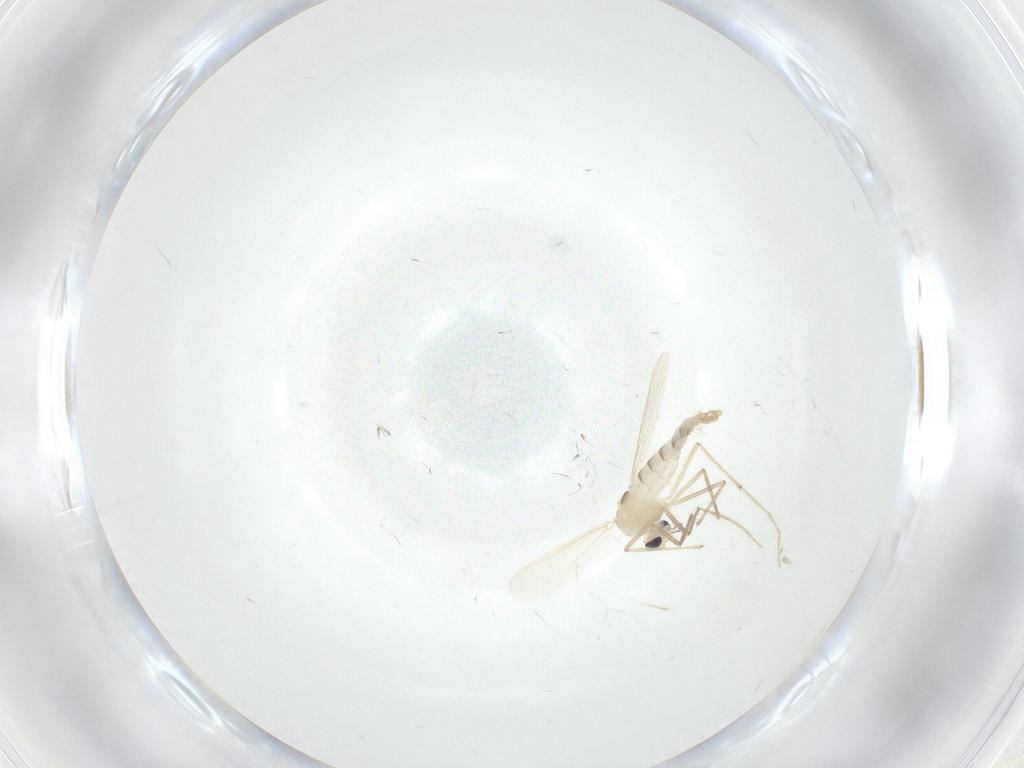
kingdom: Animalia
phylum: Arthropoda
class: Insecta
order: Diptera
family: Chironomidae
